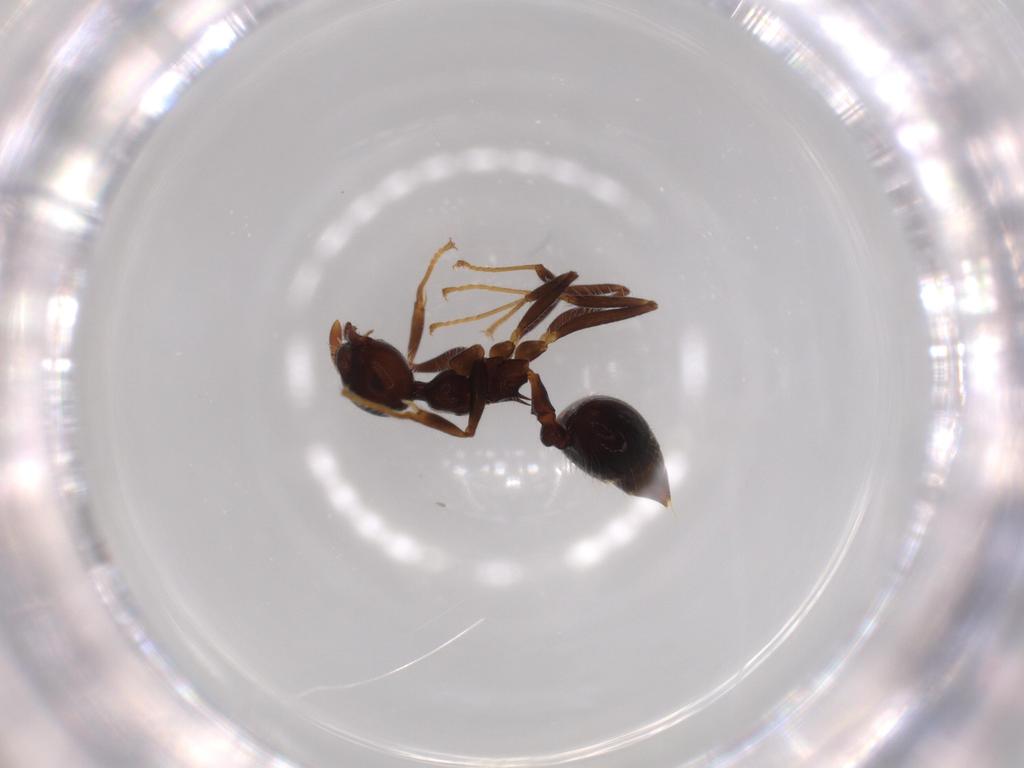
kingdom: Animalia
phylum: Arthropoda
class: Insecta
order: Hymenoptera
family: Formicidae
